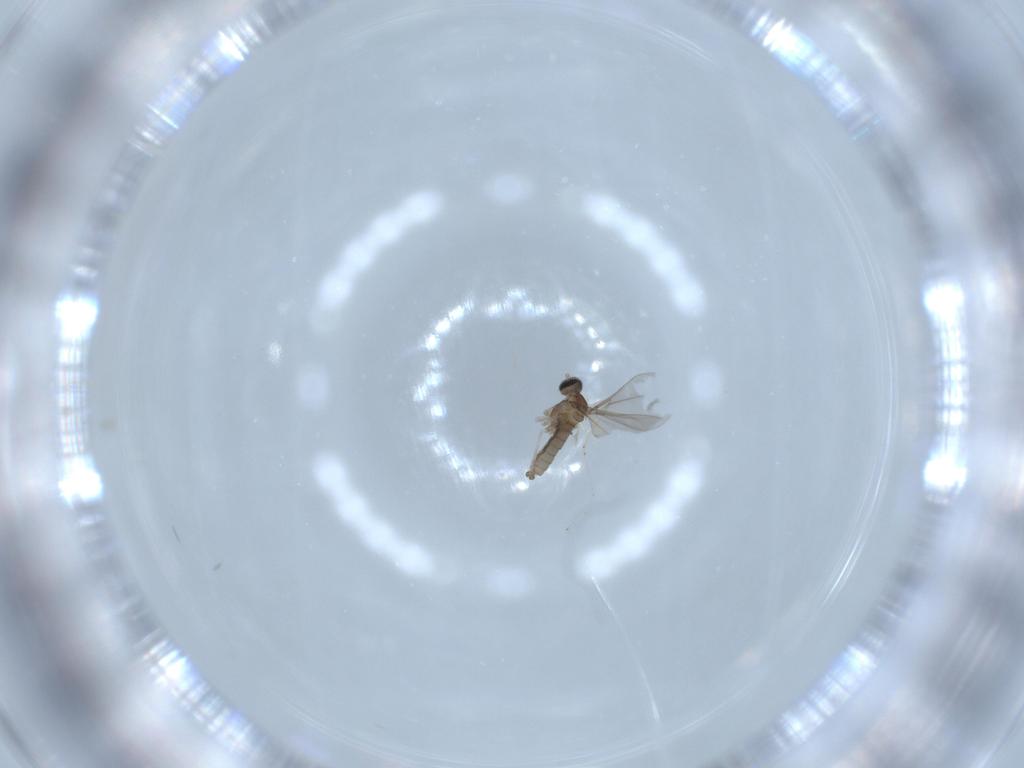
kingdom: Animalia
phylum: Arthropoda
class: Insecta
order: Diptera
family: Cecidomyiidae
